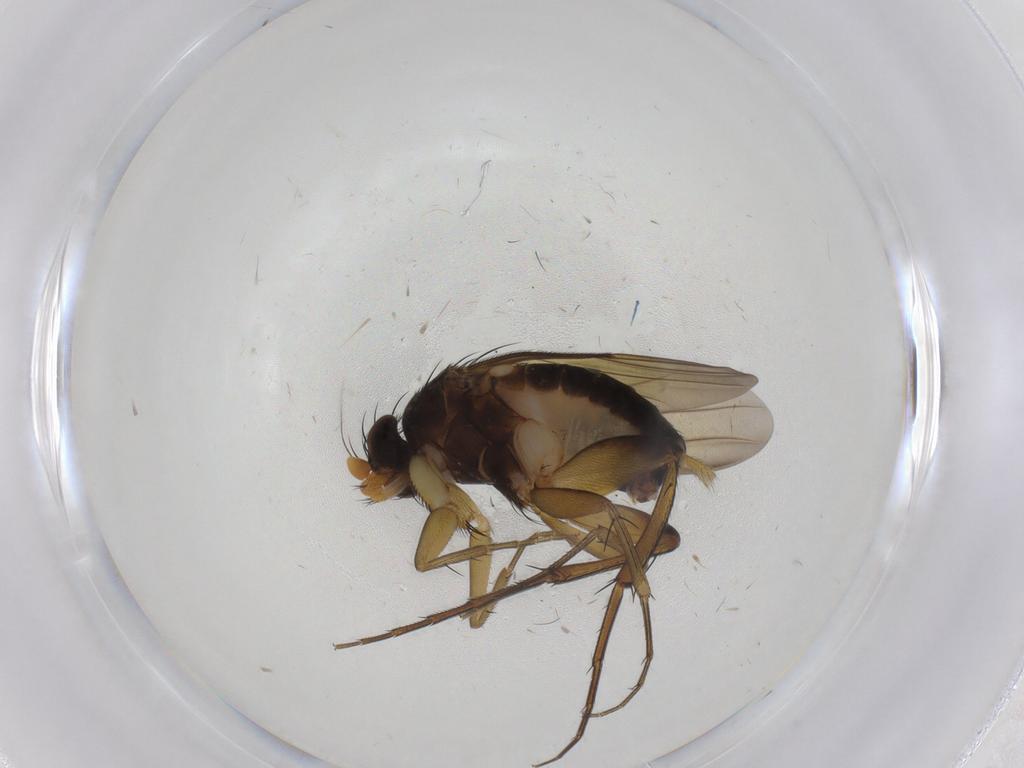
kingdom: Animalia
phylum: Arthropoda
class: Insecta
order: Diptera
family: Phoridae
